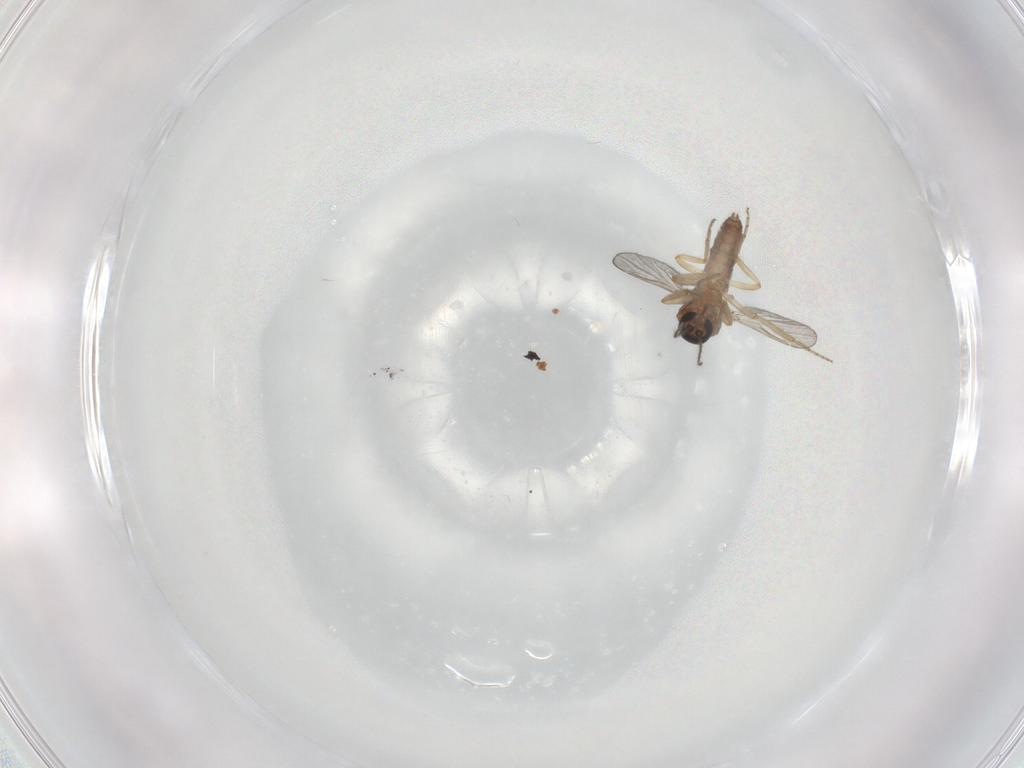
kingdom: Animalia
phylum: Arthropoda
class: Insecta
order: Diptera
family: Ceratopogonidae
